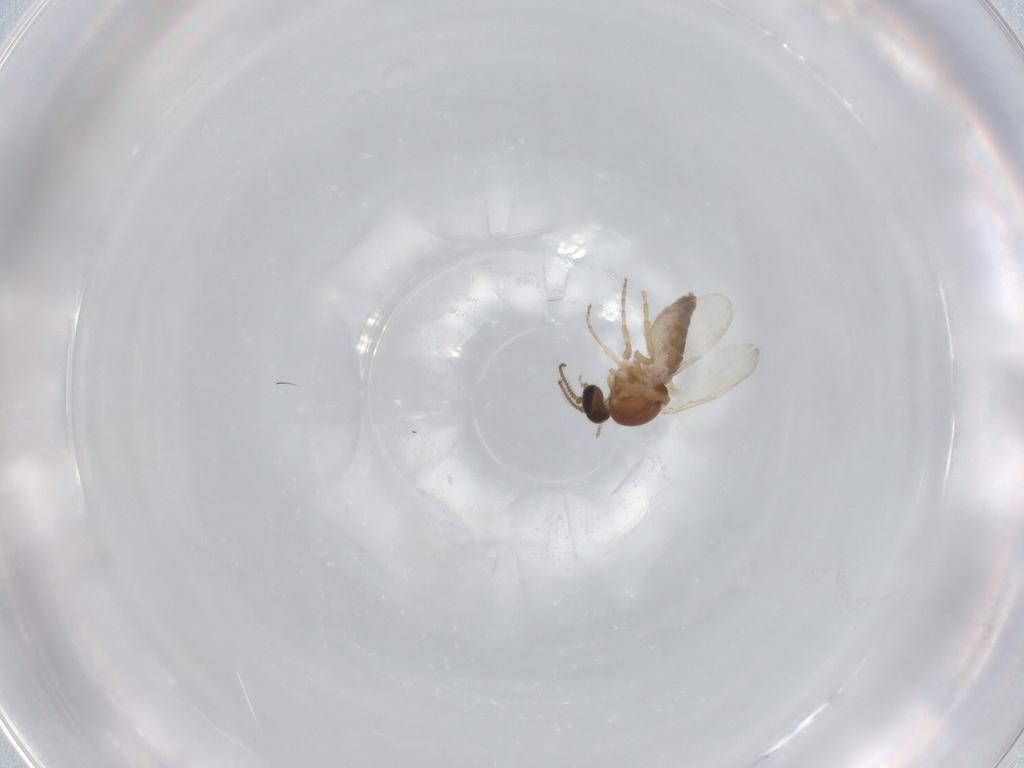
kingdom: Animalia
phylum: Arthropoda
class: Insecta
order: Diptera
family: Ceratopogonidae
